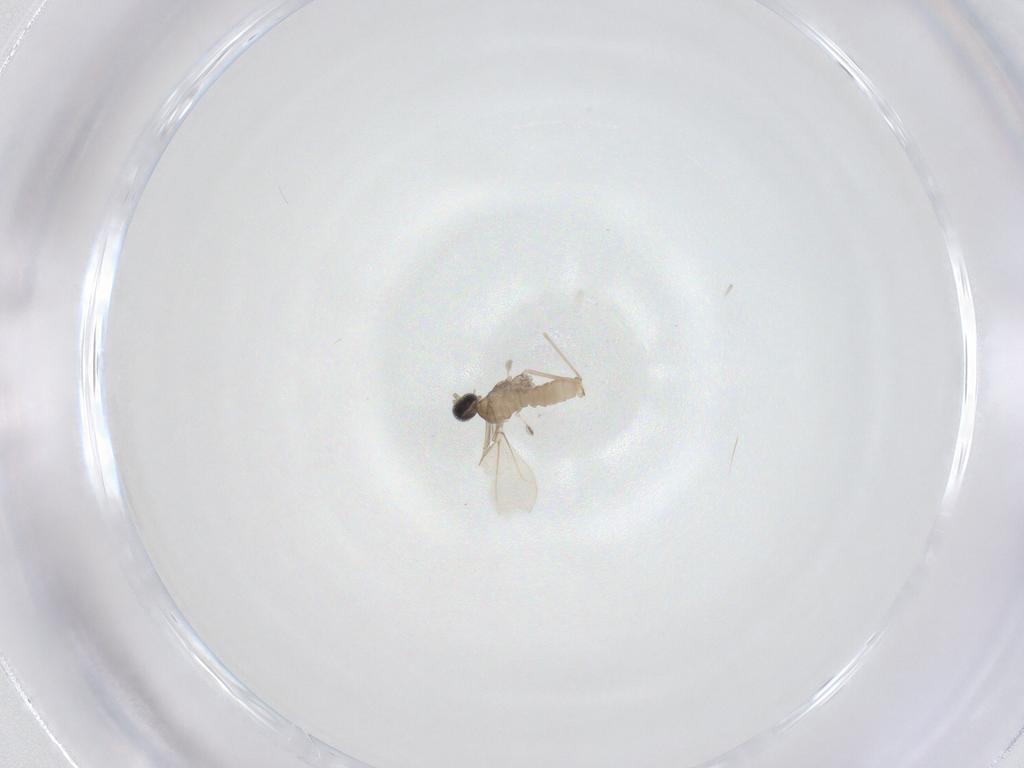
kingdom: Animalia
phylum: Arthropoda
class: Insecta
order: Diptera
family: Cecidomyiidae
